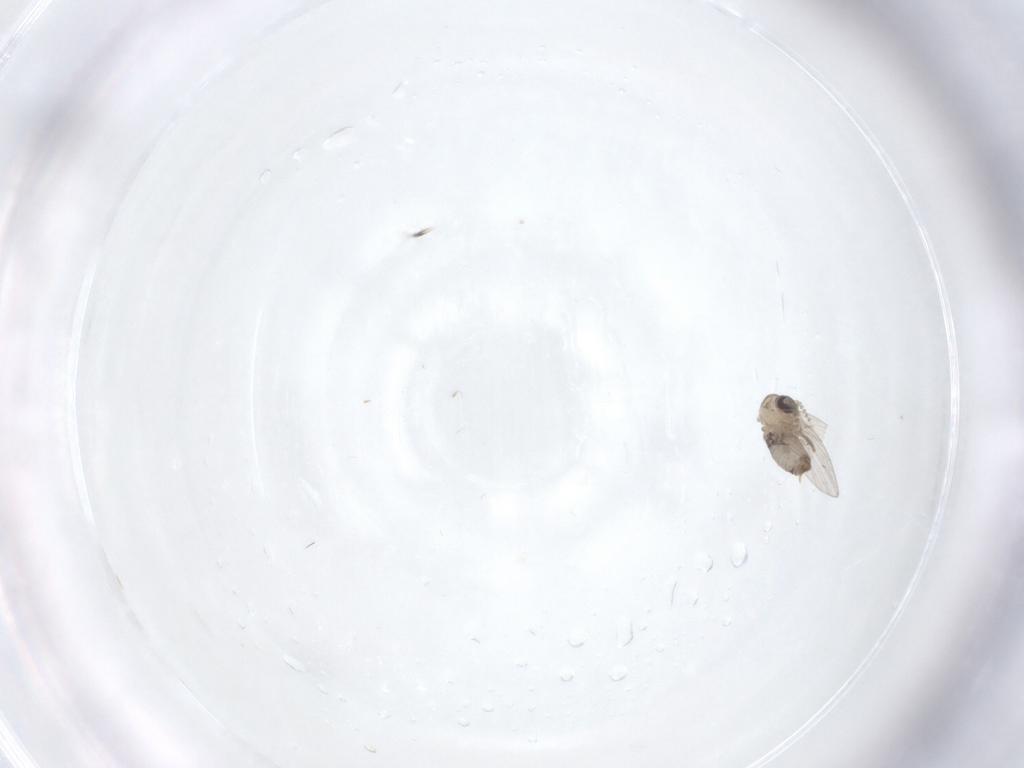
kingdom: Animalia
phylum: Arthropoda
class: Insecta
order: Diptera
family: Psychodidae
